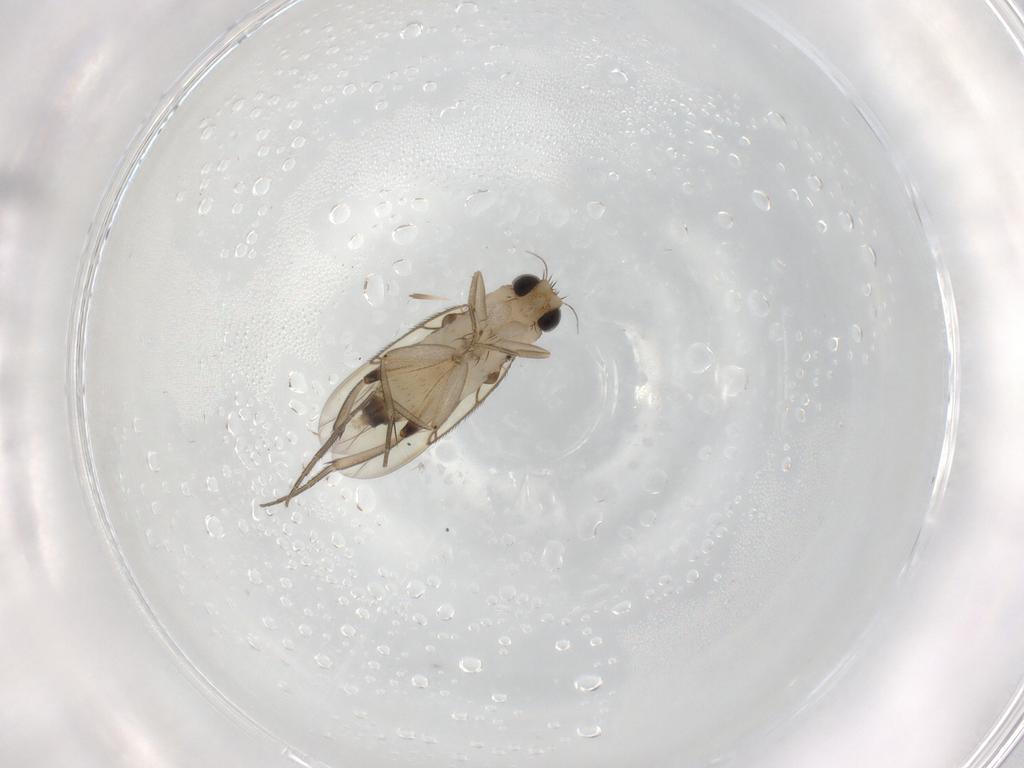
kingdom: Animalia
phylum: Arthropoda
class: Insecta
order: Diptera
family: Phoridae
